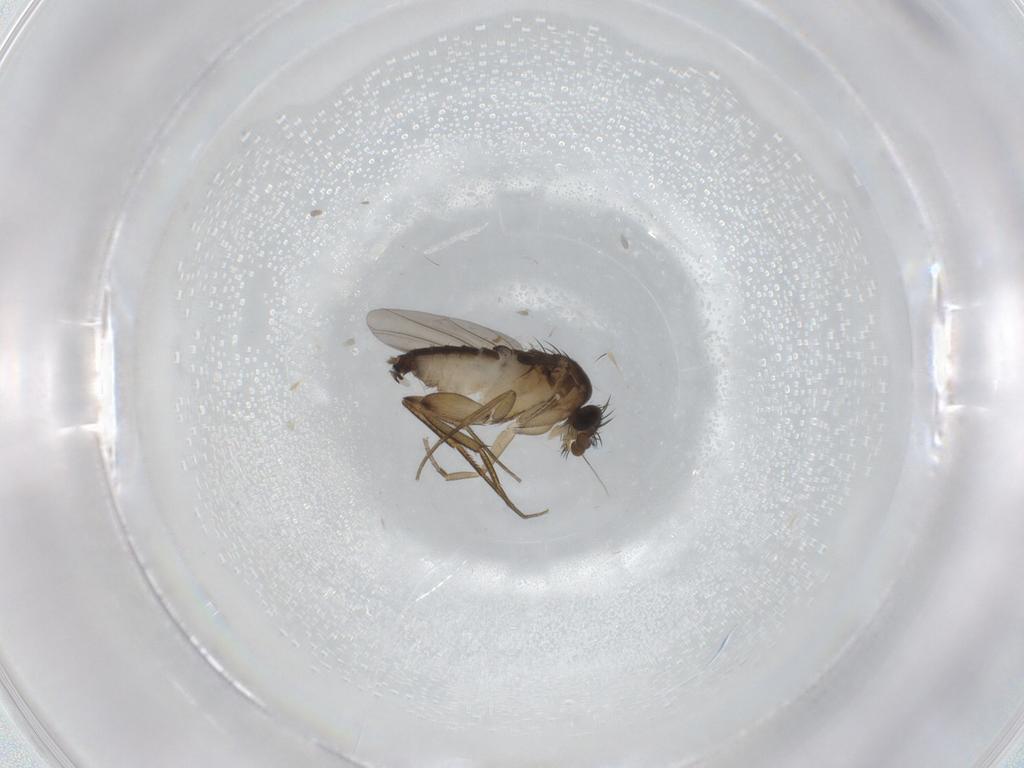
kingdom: Animalia
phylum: Arthropoda
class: Insecta
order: Diptera
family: Phoridae
